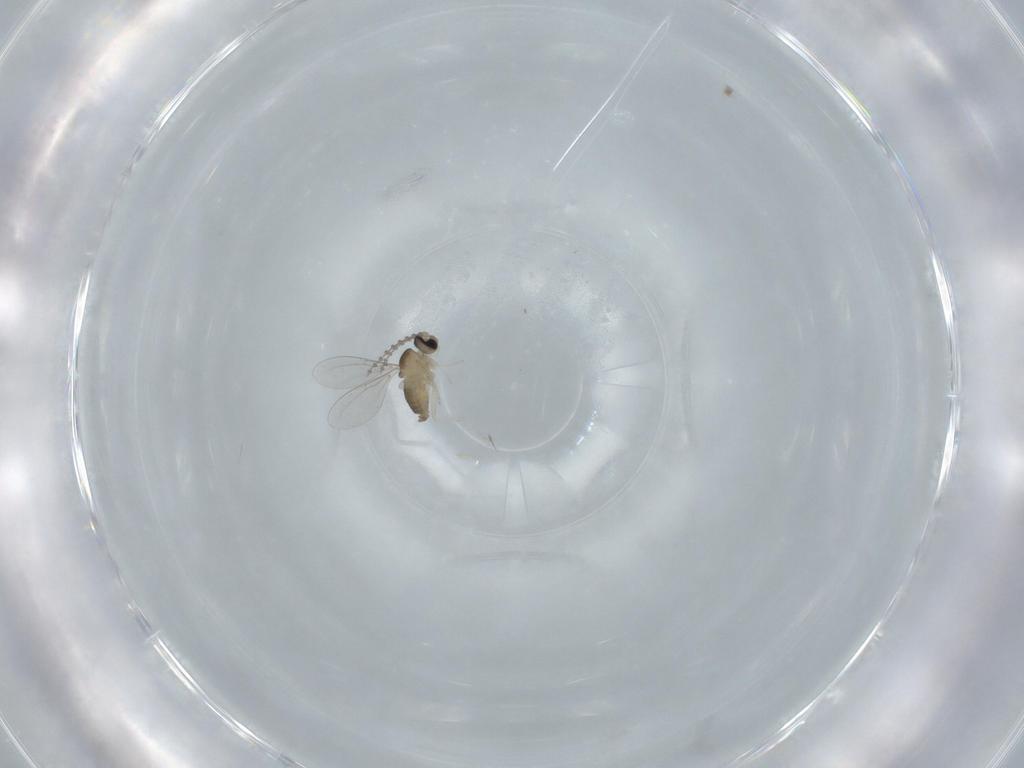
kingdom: Animalia
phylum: Arthropoda
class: Insecta
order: Diptera
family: Cecidomyiidae
